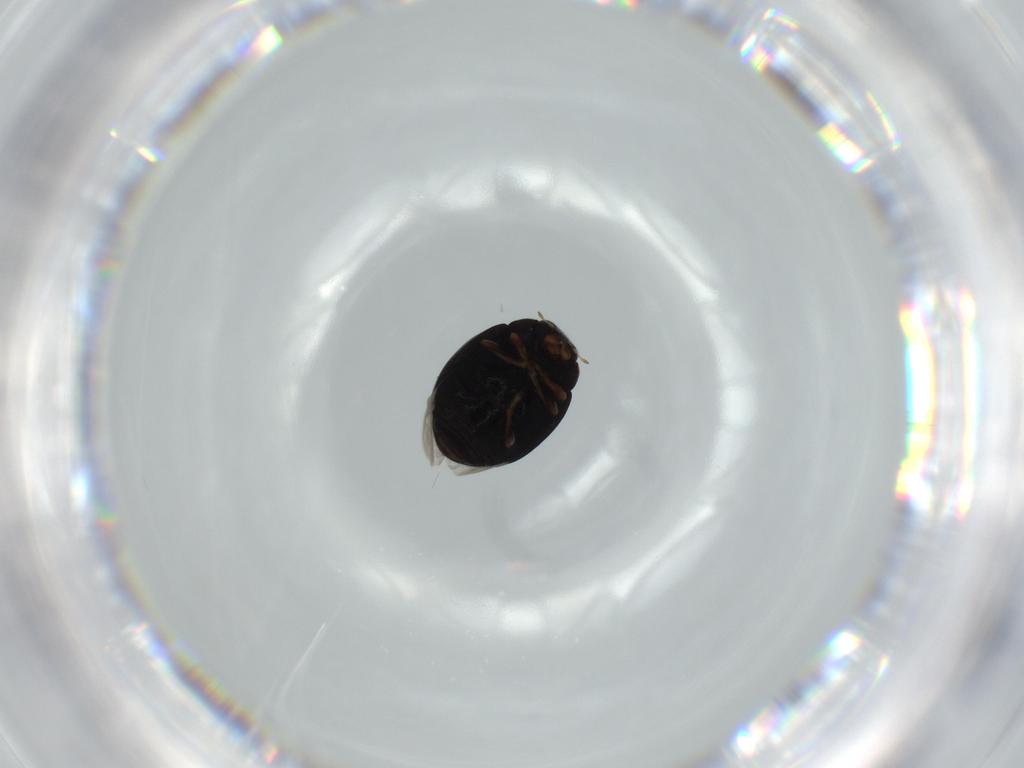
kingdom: Animalia
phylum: Arthropoda
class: Insecta
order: Coleoptera
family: Coccinellidae
